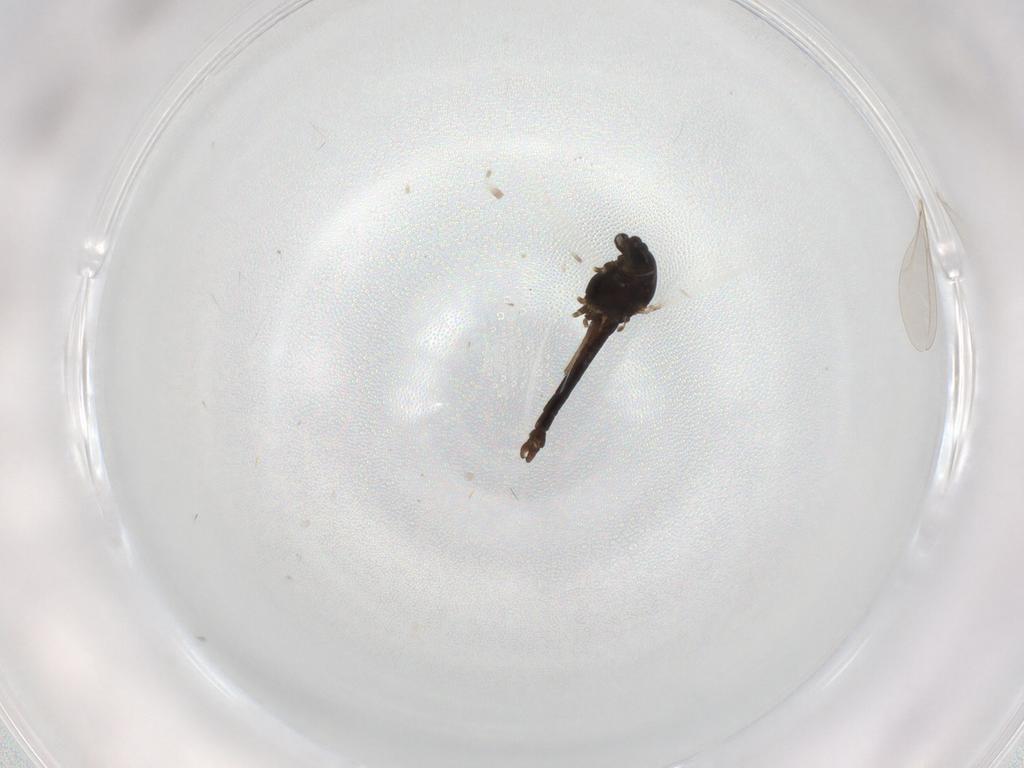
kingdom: Animalia
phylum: Arthropoda
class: Insecta
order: Diptera
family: Chironomidae
